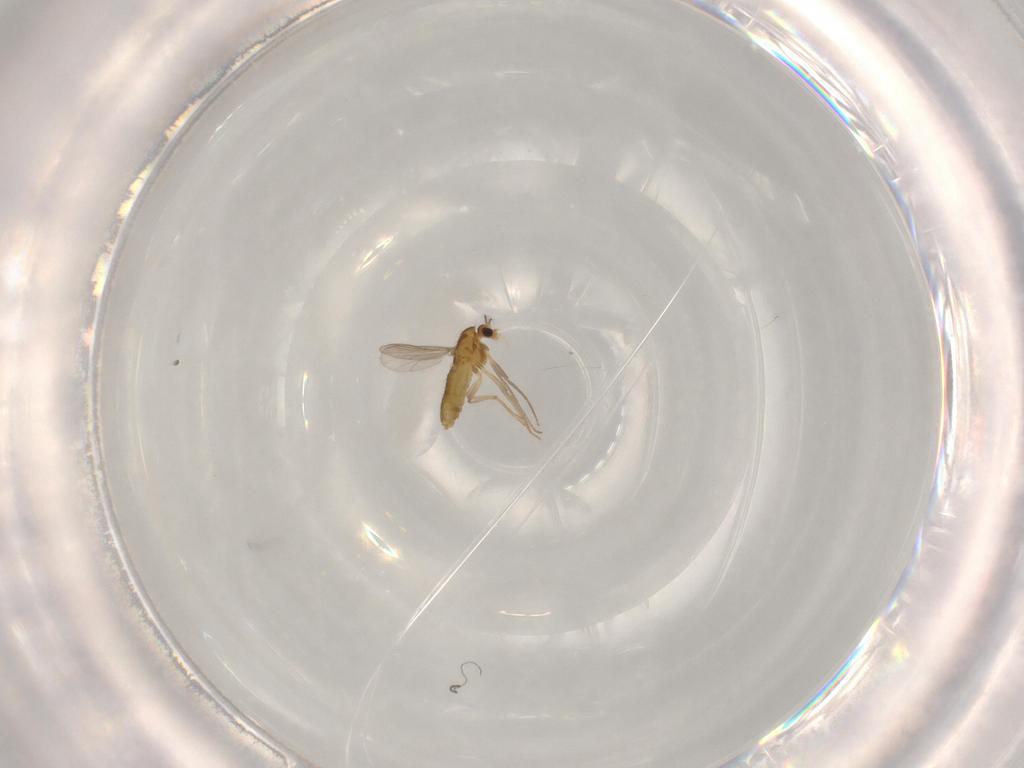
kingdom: Animalia
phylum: Arthropoda
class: Insecta
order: Diptera
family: Chironomidae
